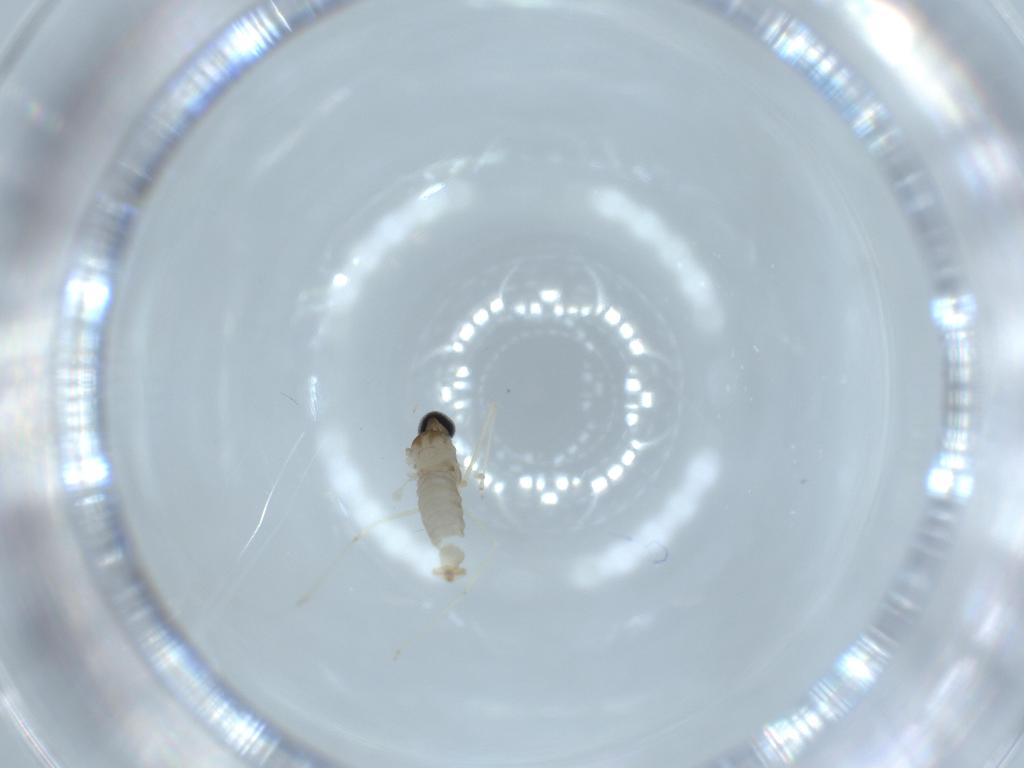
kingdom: Animalia
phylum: Arthropoda
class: Insecta
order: Diptera
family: Cecidomyiidae
